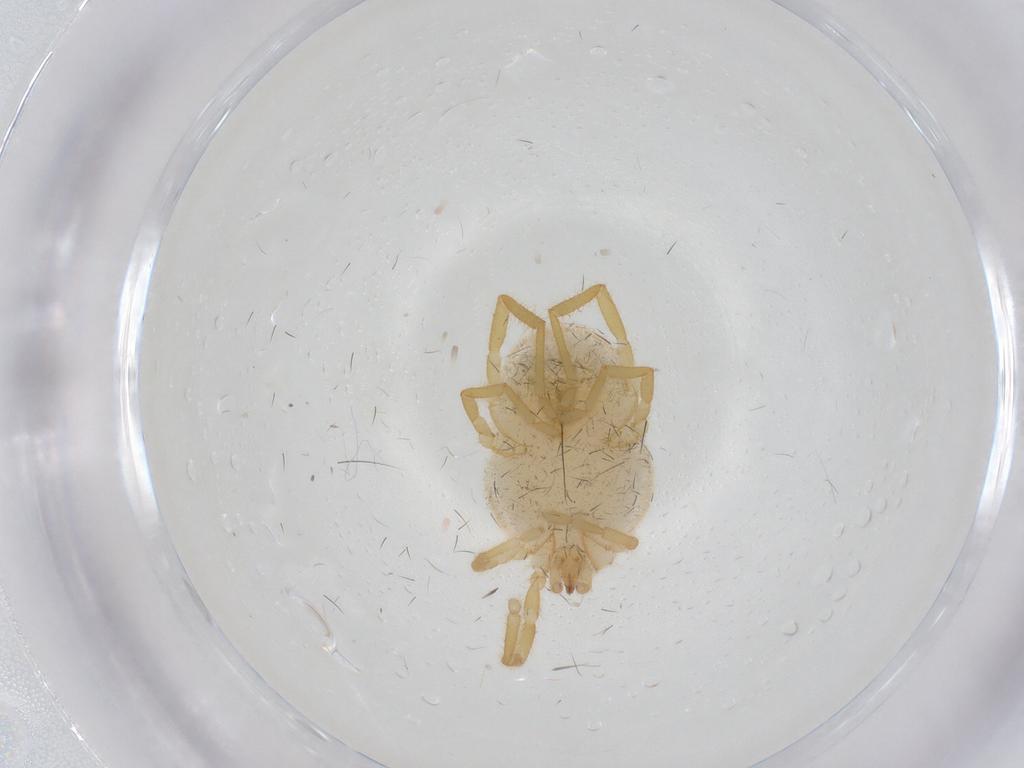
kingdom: Animalia
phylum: Arthropoda
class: Arachnida
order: Trombidiformes
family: Erythraeidae
